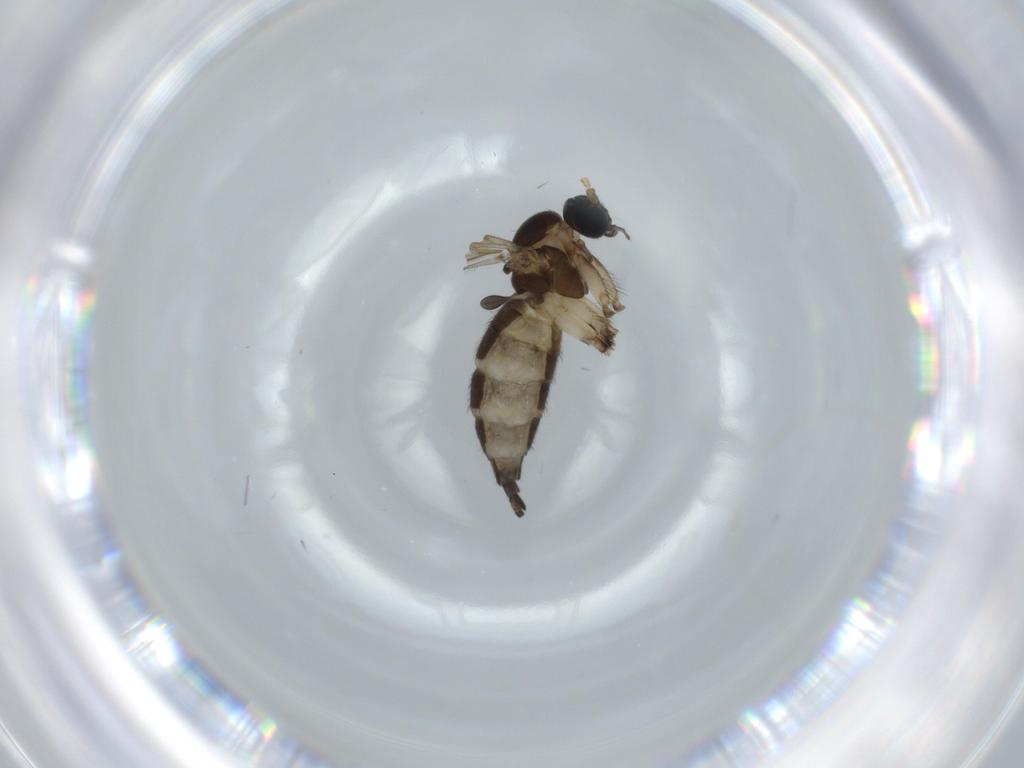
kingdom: Animalia
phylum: Arthropoda
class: Insecta
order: Diptera
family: Sciaridae
